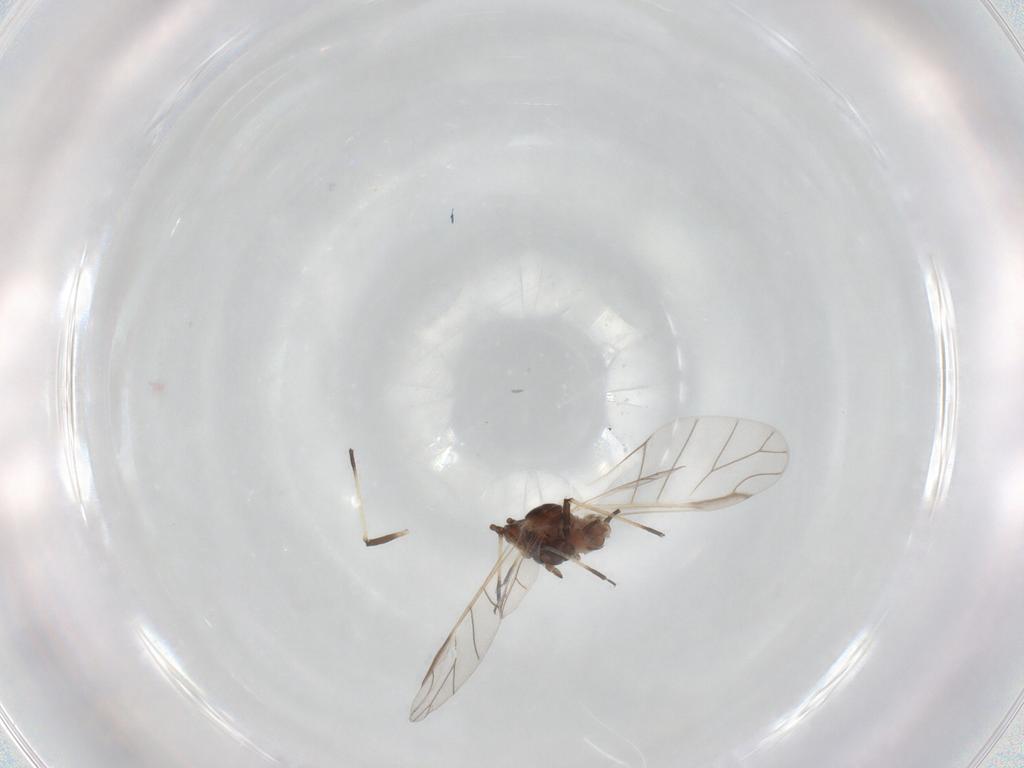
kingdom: Animalia
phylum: Arthropoda
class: Insecta
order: Hemiptera
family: Aphididae
